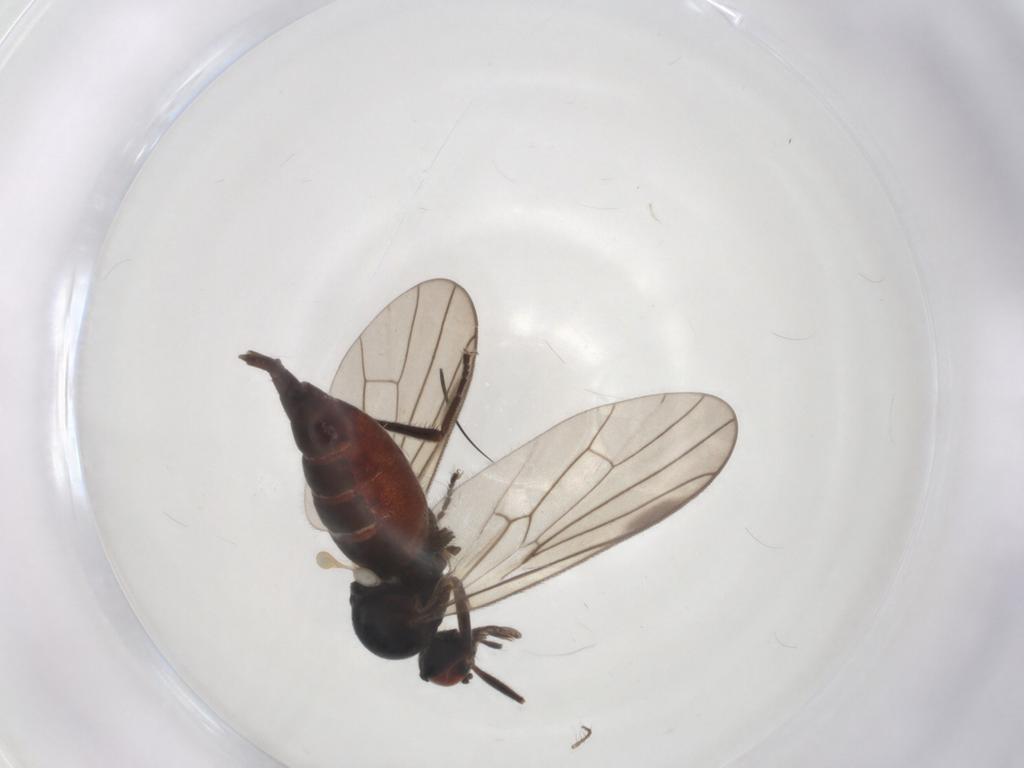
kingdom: Animalia
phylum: Arthropoda
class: Insecta
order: Diptera
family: Hybotidae
